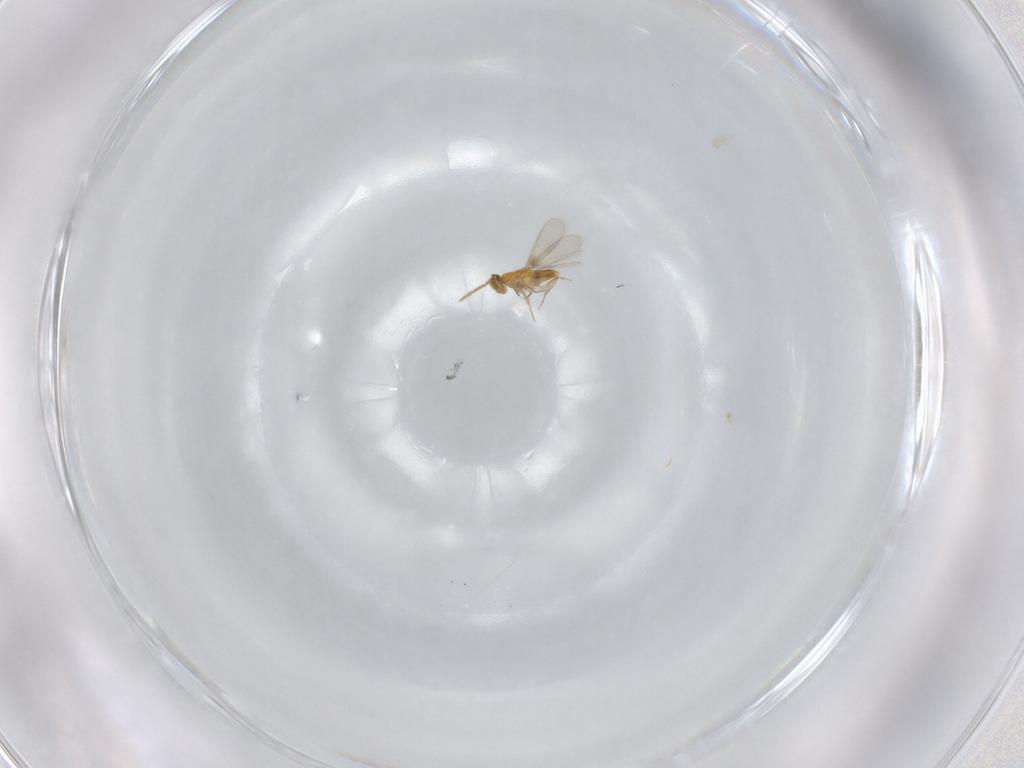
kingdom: Animalia
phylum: Arthropoda
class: Insecta
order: Hymenoptera
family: Aphelinidae
